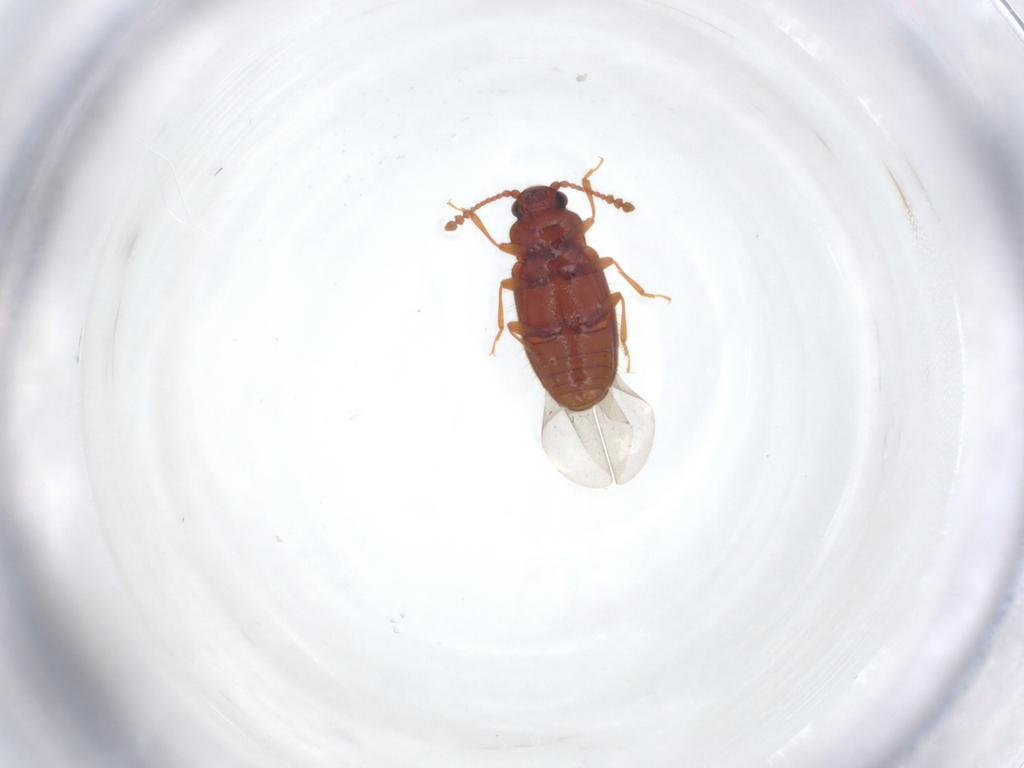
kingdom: Animalia
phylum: Arthropoda
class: Insecta
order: Coleoptera
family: Cryptophagidae
